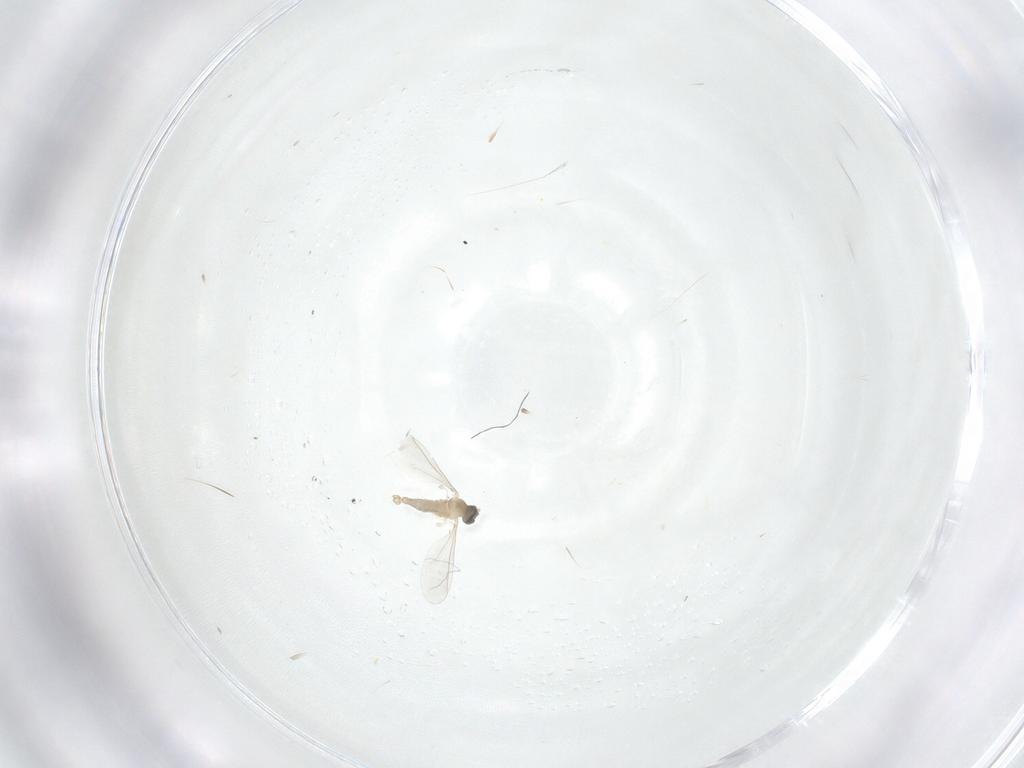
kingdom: Animalia
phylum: Arthropoda
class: Insecta
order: Diptera
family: Cecidomyiidae
